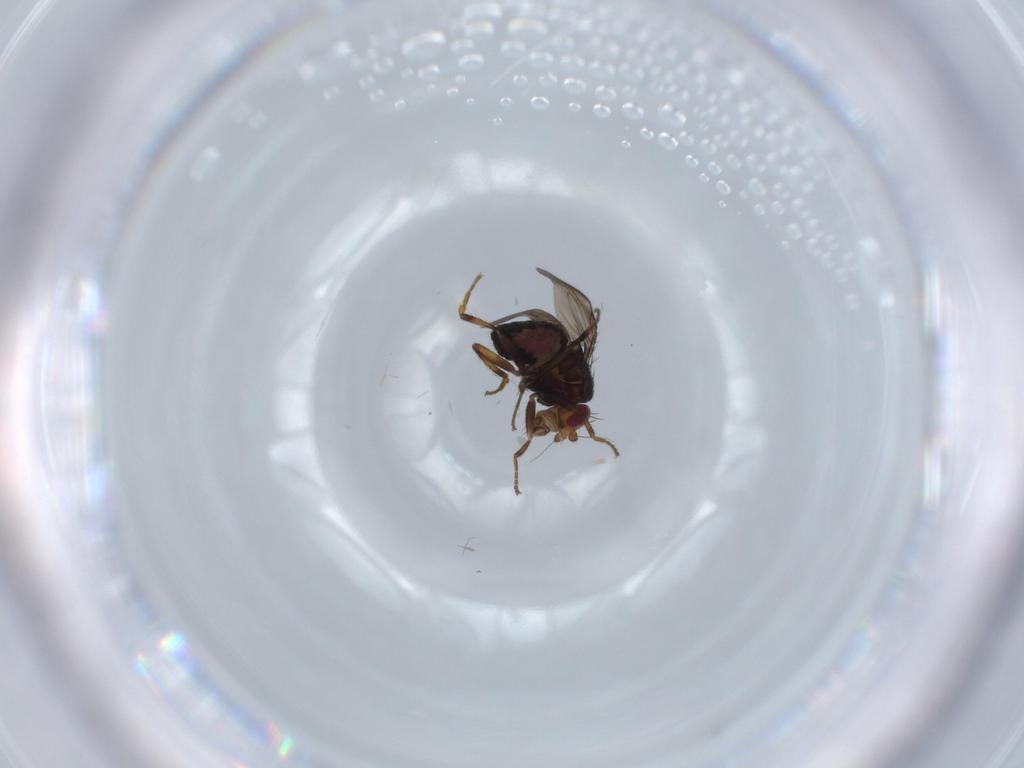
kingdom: Animalia
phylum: Arthropoda
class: Insecta
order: Diptera
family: Sphaeroceridae
